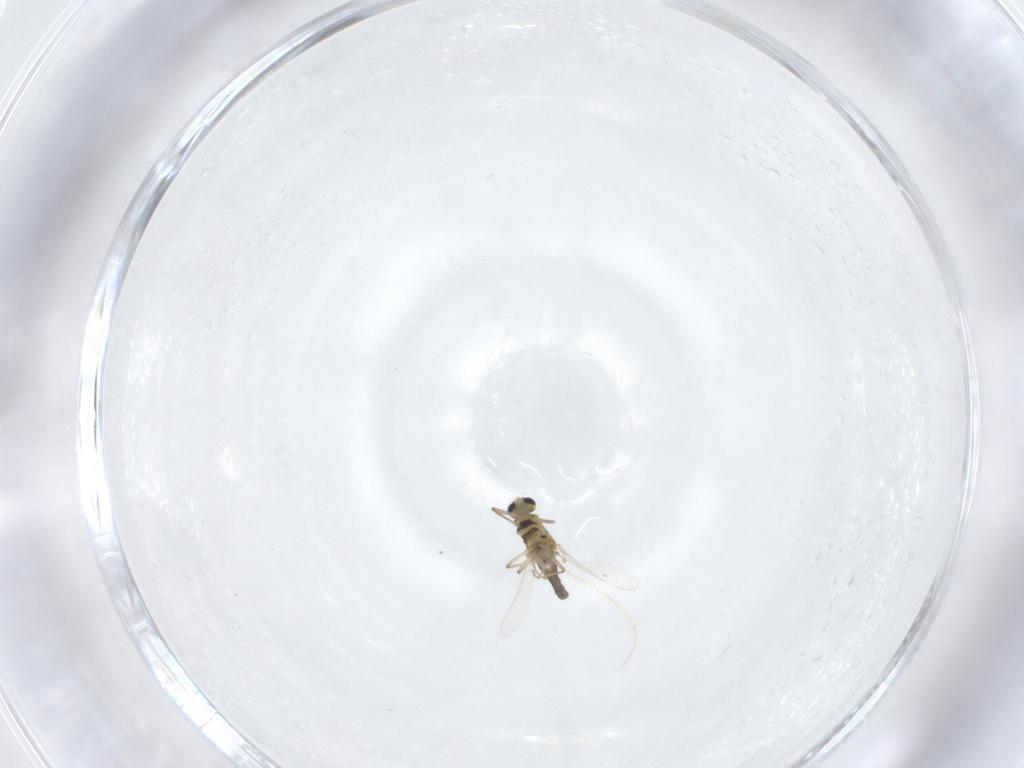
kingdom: Animalia
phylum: Arthropoda
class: Insecta
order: Diptera
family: Chironomidae
